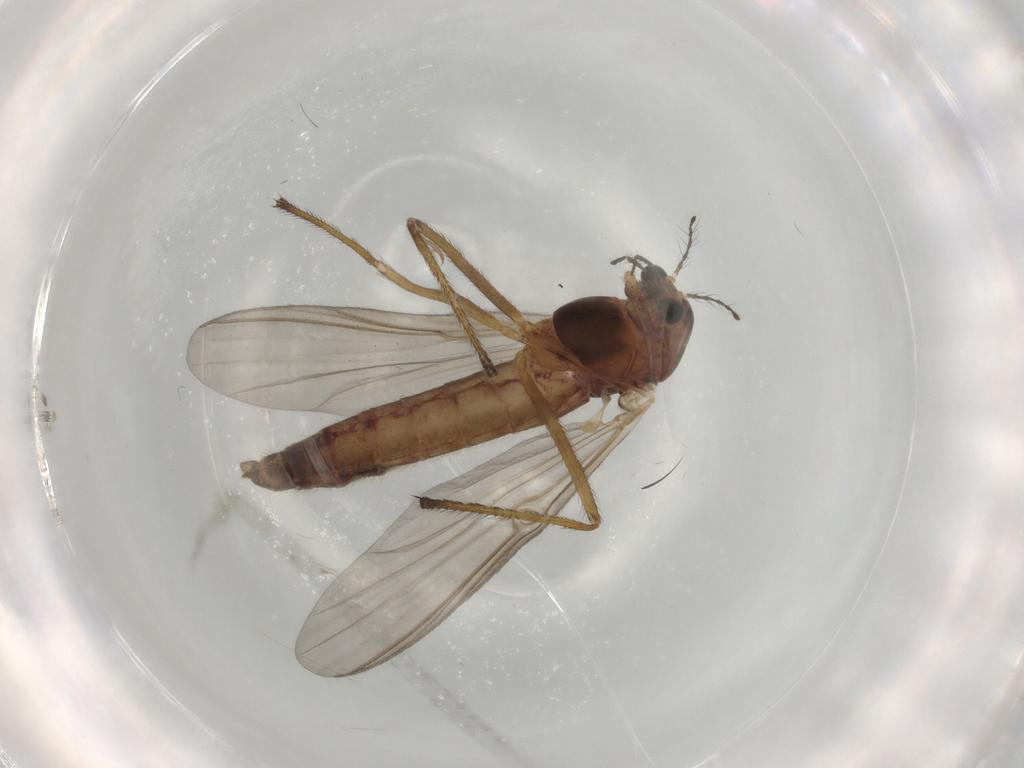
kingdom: Animalia
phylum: Arthropoda
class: Insecta
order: Diptera
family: Chironomidae
